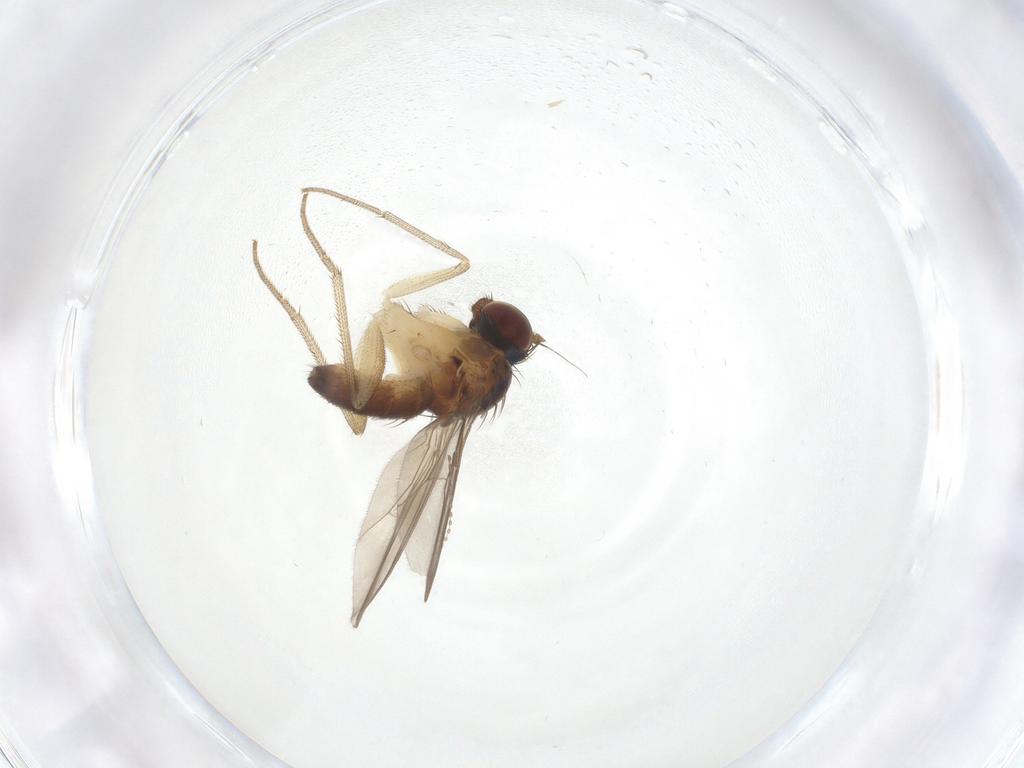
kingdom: Animalia
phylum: Arthropoda
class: Insecta
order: Diptera
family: Dolichopodidae
